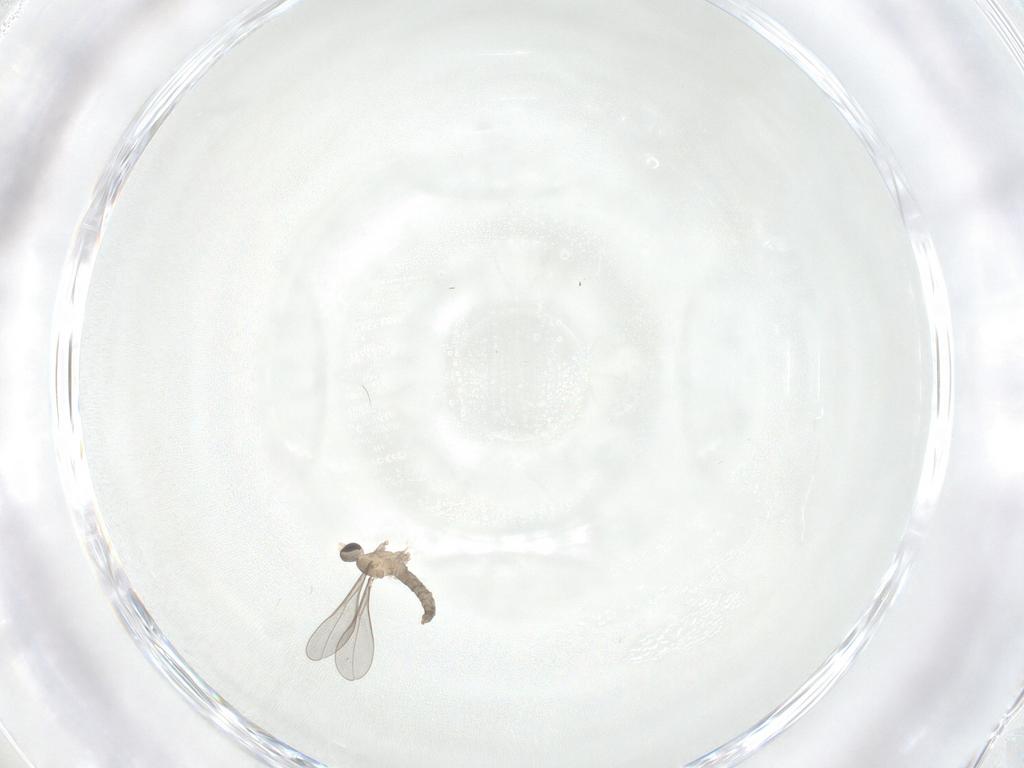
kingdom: Animalia
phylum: Arthropoda
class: Insecta
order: Diptera
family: Cecidomyiidae
